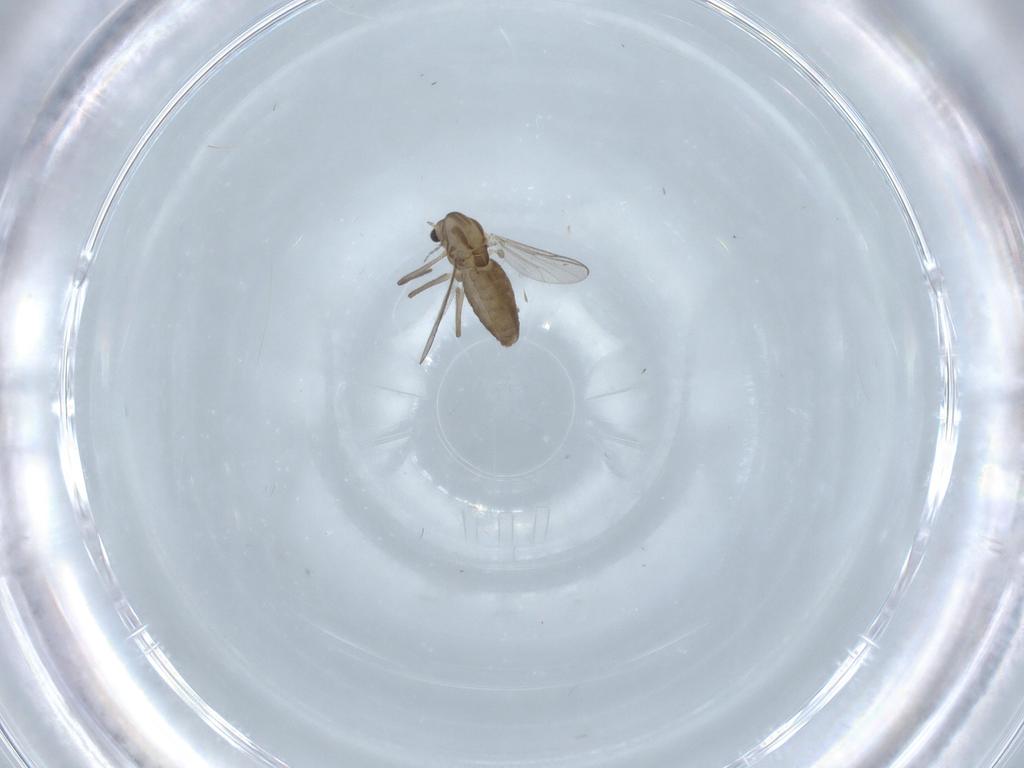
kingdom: Animalia
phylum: Arthropoda
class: Insecta
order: Diptera
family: Chironomidae
